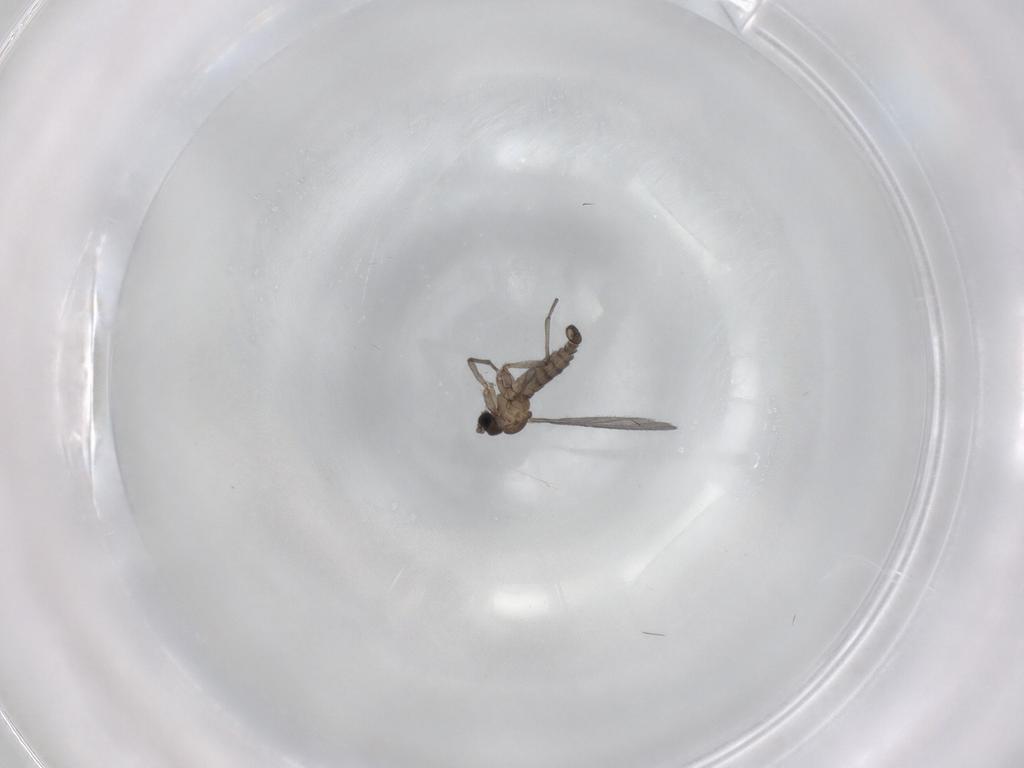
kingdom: Animalia
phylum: Arthropoda
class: Insecta
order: Diptera
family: Sciaridae
